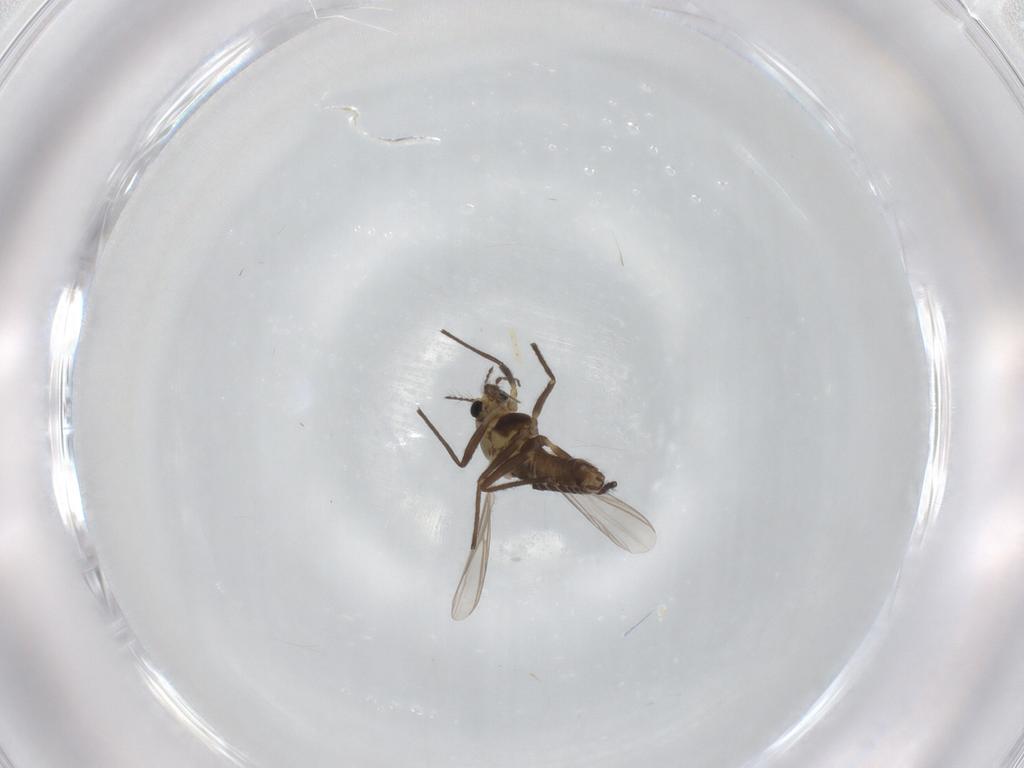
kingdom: Animalia
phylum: Arthropoda
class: Insecta
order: Diptera
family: Chironomidae
